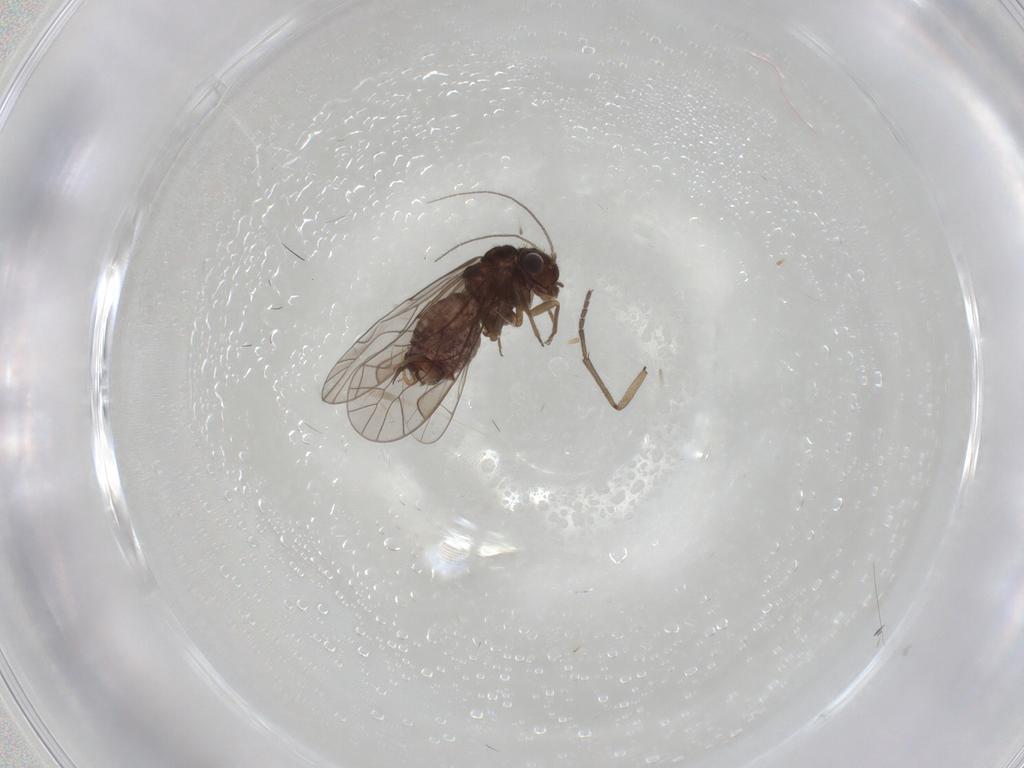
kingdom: Animalia
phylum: Arthropoda
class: Insecta
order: Psocodea
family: Lachesillidae
